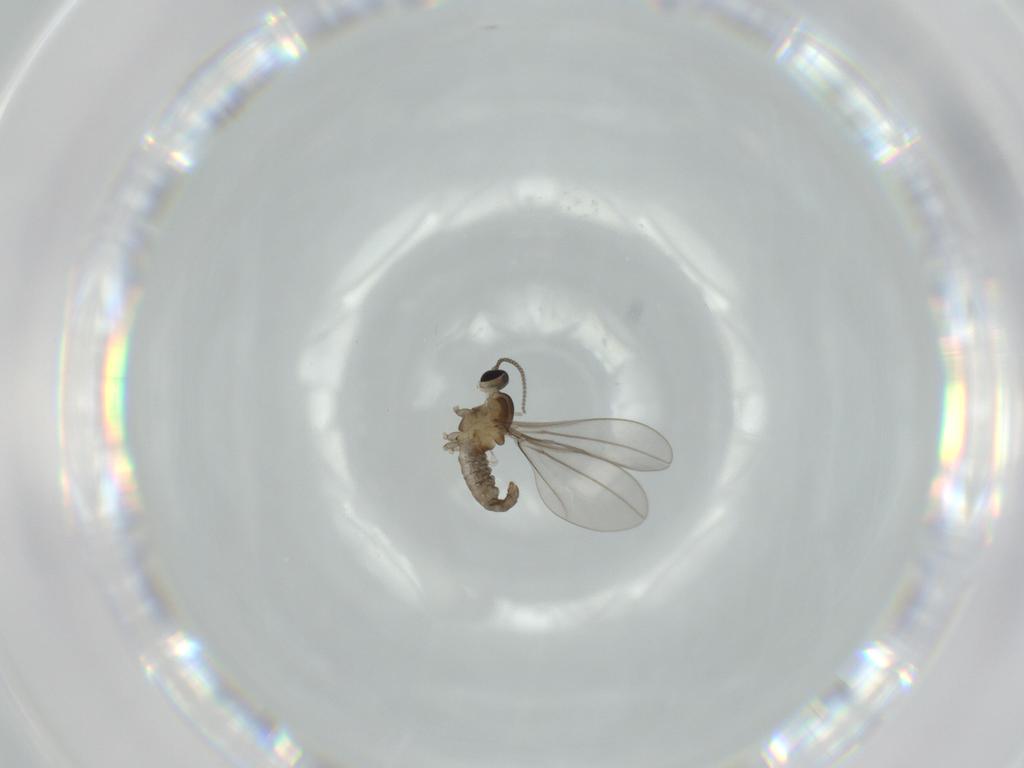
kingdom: Animalia
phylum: Arthropoda
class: Insecta
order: Diptera
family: Cecidomyiidae
